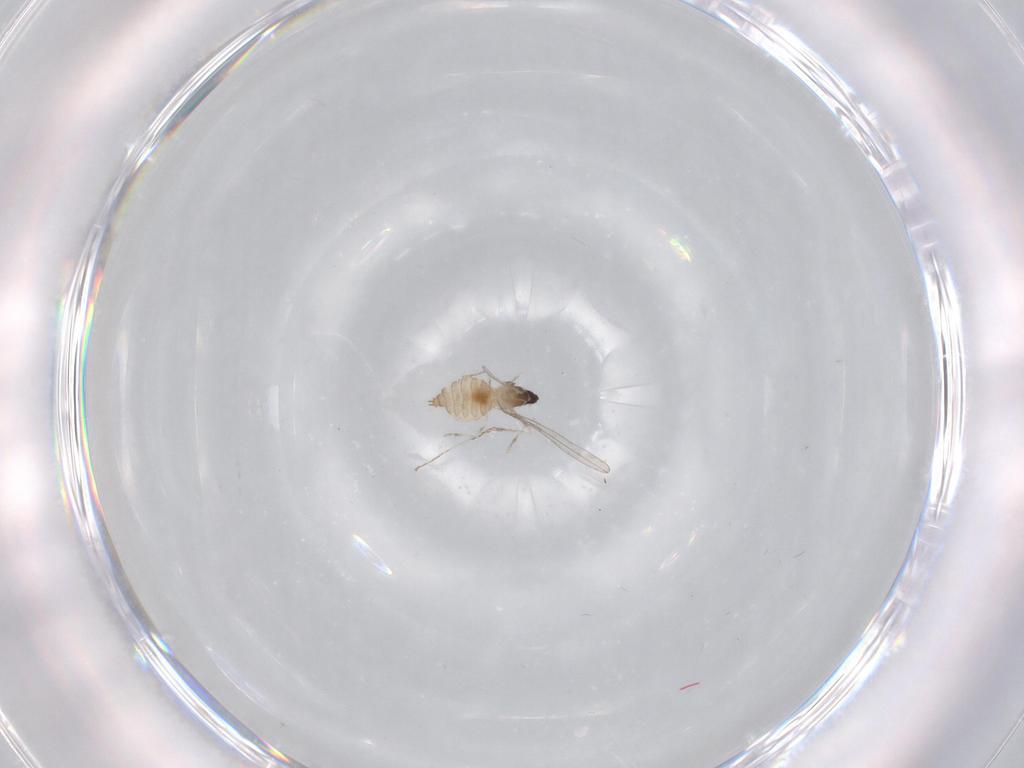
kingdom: Animalia
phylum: Arthropoda
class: Insecta
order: Diptera
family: Cecidomyiidae
